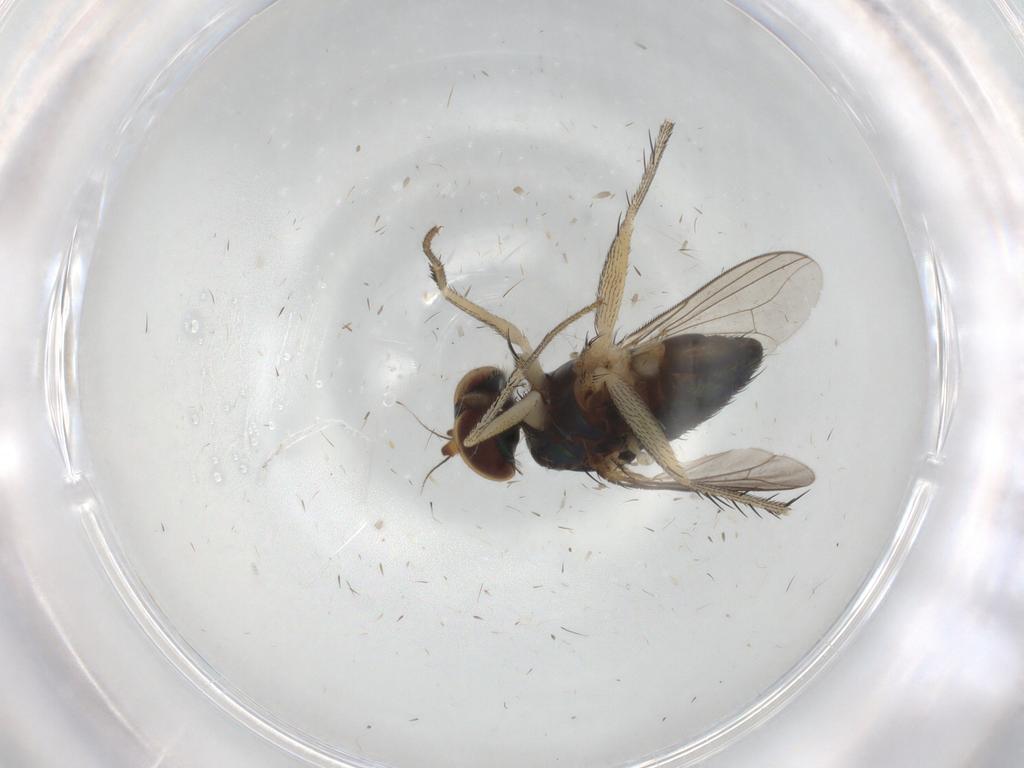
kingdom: Animalia
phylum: Arthropoda
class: Insecta
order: Diptera
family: Dolichopodidae
